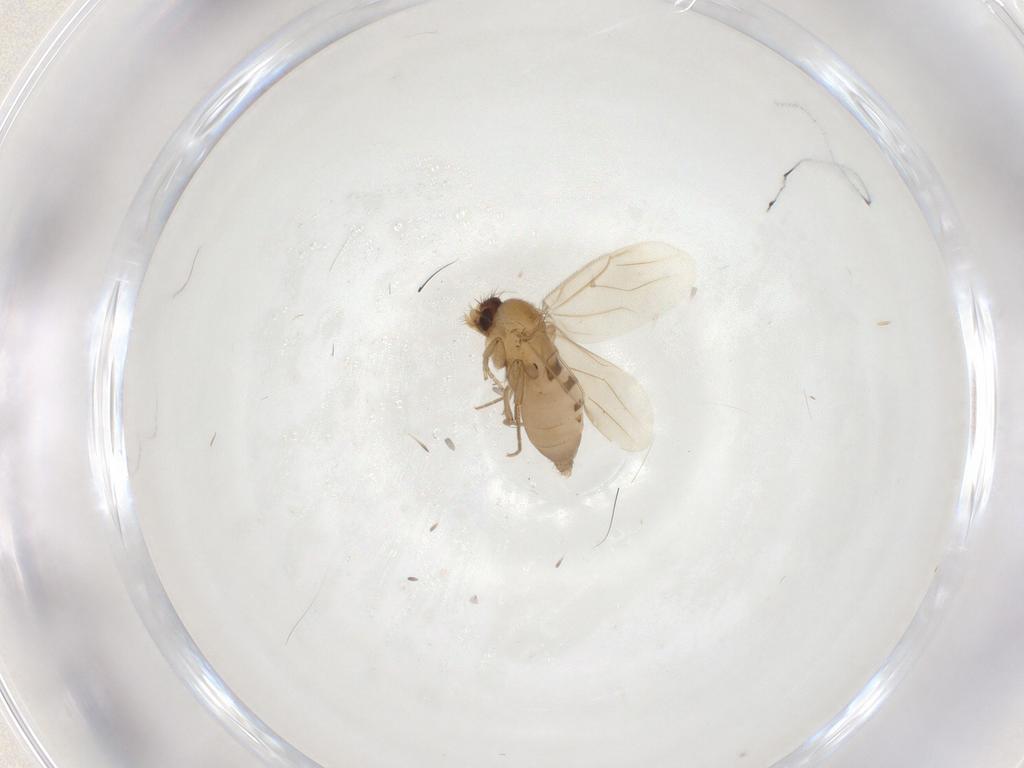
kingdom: Animalia
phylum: Arthropoda
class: Insecta
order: Diptera
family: Phoridae
